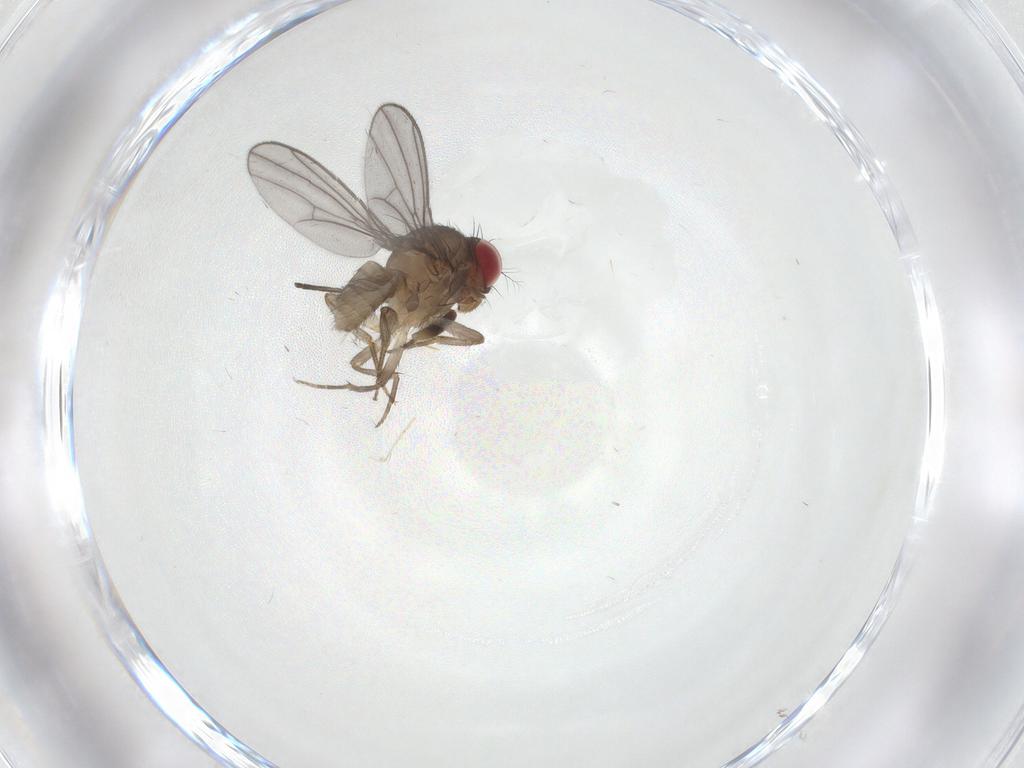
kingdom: Animalia
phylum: Arthropoda
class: Insecta
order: Diptera
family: Drosophilidae
